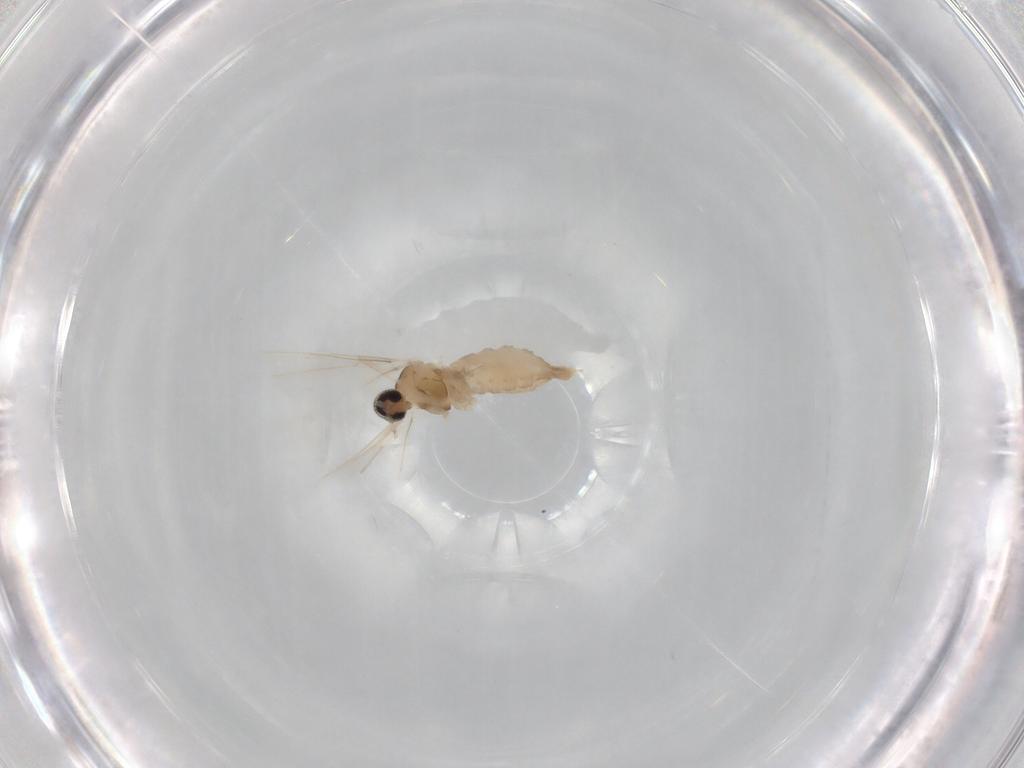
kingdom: Animalia
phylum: Arthropoda
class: Insecta
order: Diptera
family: Cecidomyiidae
